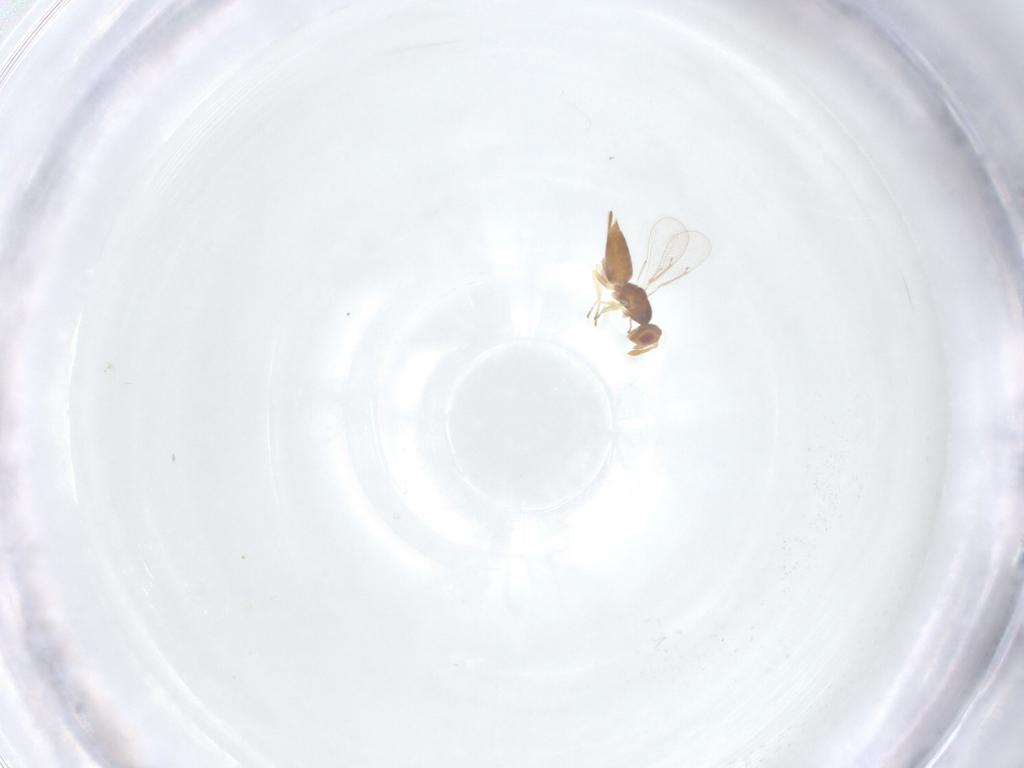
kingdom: Animalia
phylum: Arthropoda
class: Insecta
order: Hymenoptera
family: Eulophidae
